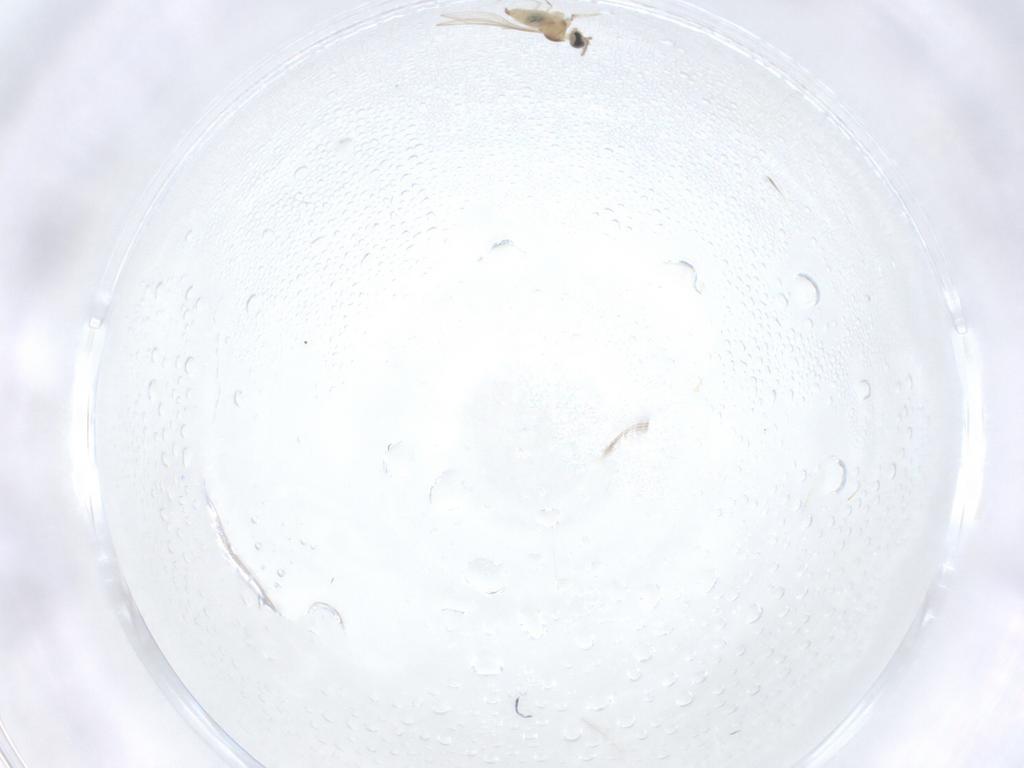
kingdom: Animalia
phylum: Arthropoda
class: Insecta
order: Diptera
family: Cecidomyiidae
